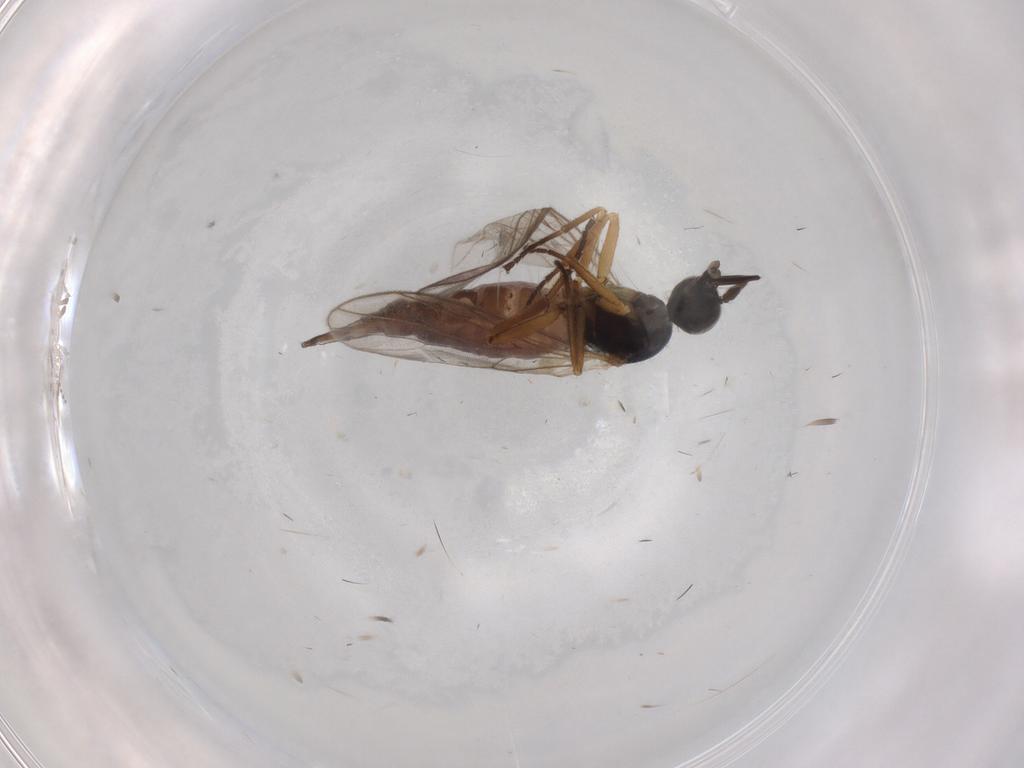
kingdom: Animalia
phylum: Arthropoda
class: Insecta
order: Diptera
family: Hybotidae
